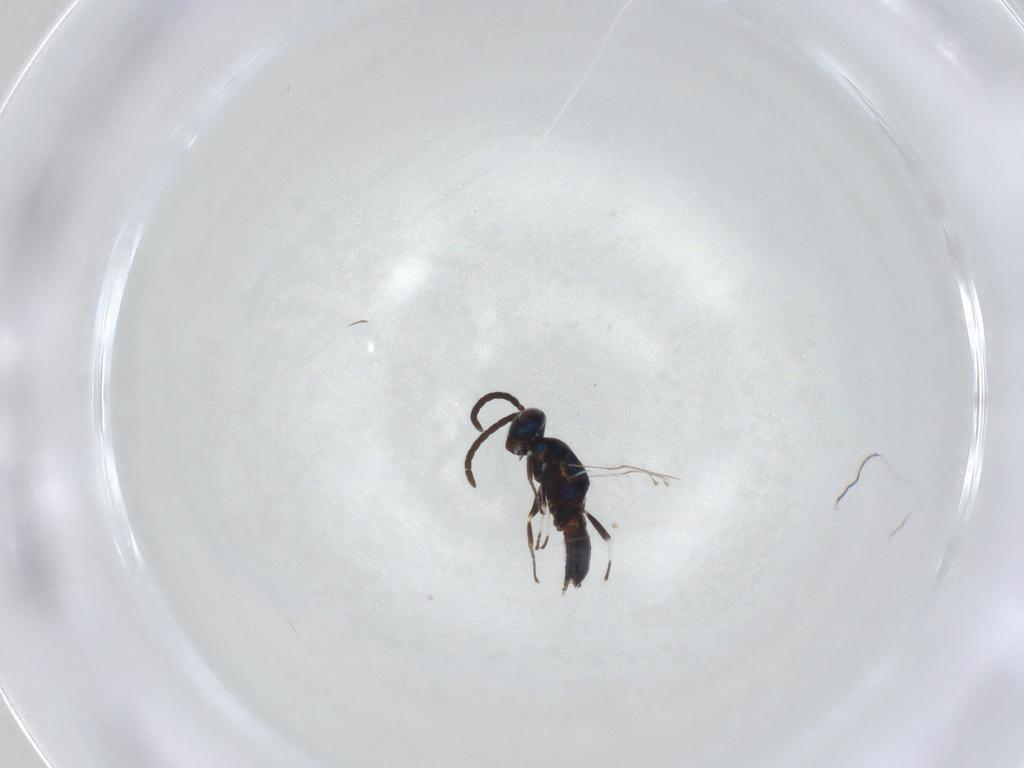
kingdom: Animalia
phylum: Arthropoda
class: Insecta
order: Hymenoptera
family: Eupelmidae
